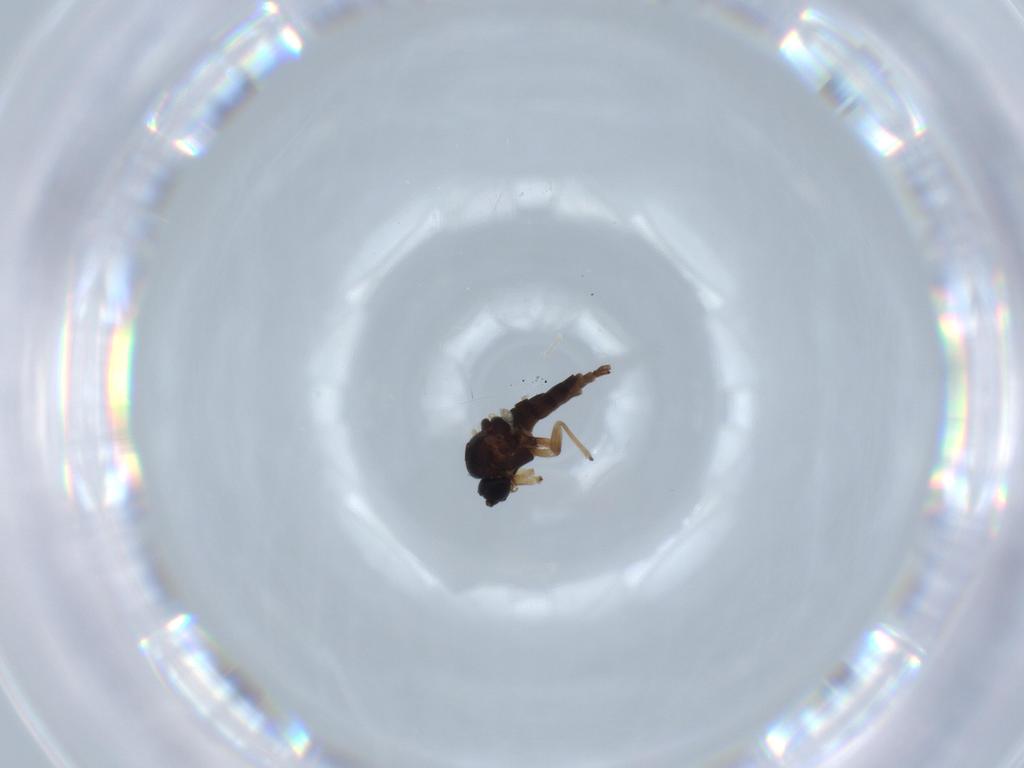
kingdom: Animalia
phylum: Arthropoda
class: Insecta
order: Diptera
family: Sciaridae
